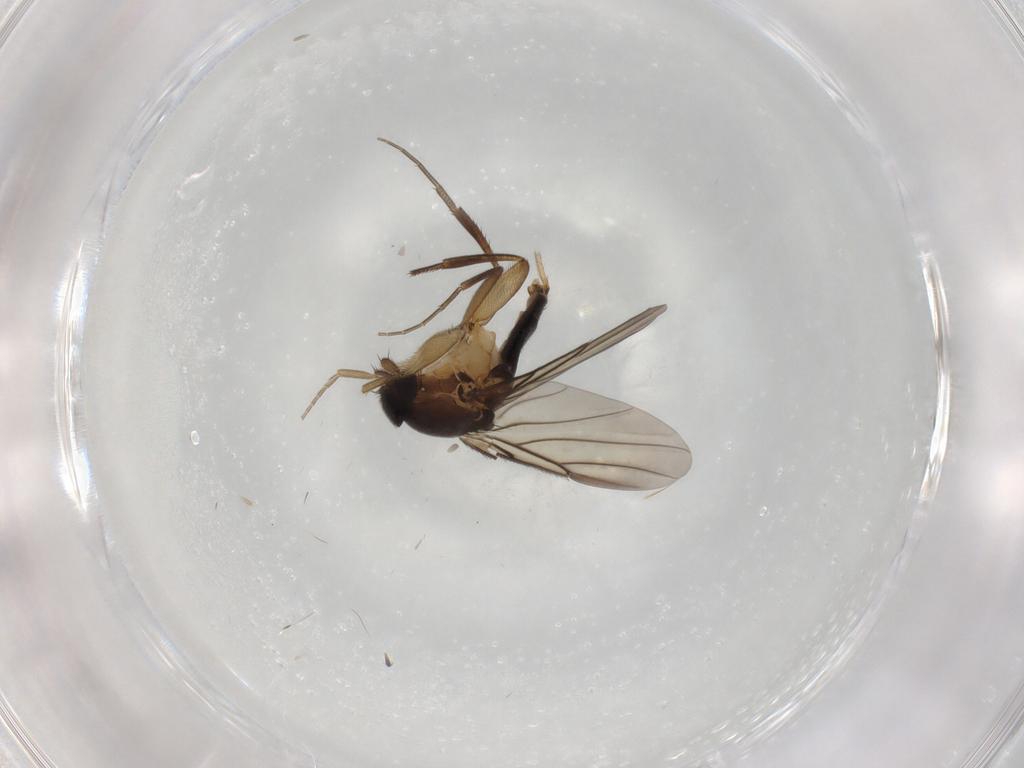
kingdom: Animalia
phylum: Arthropoda
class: Insecta
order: Diptera
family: Phoridae
